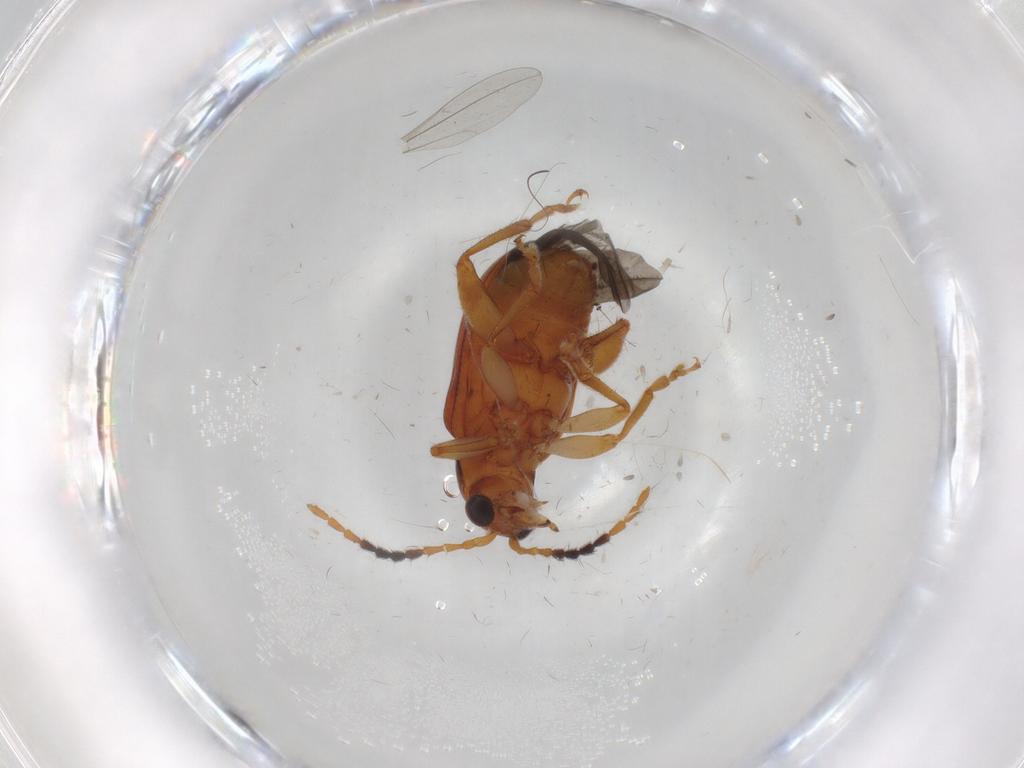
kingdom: Animalia
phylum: Arthropoda
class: Insecta
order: Coleoptera
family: Chrysomelidae
